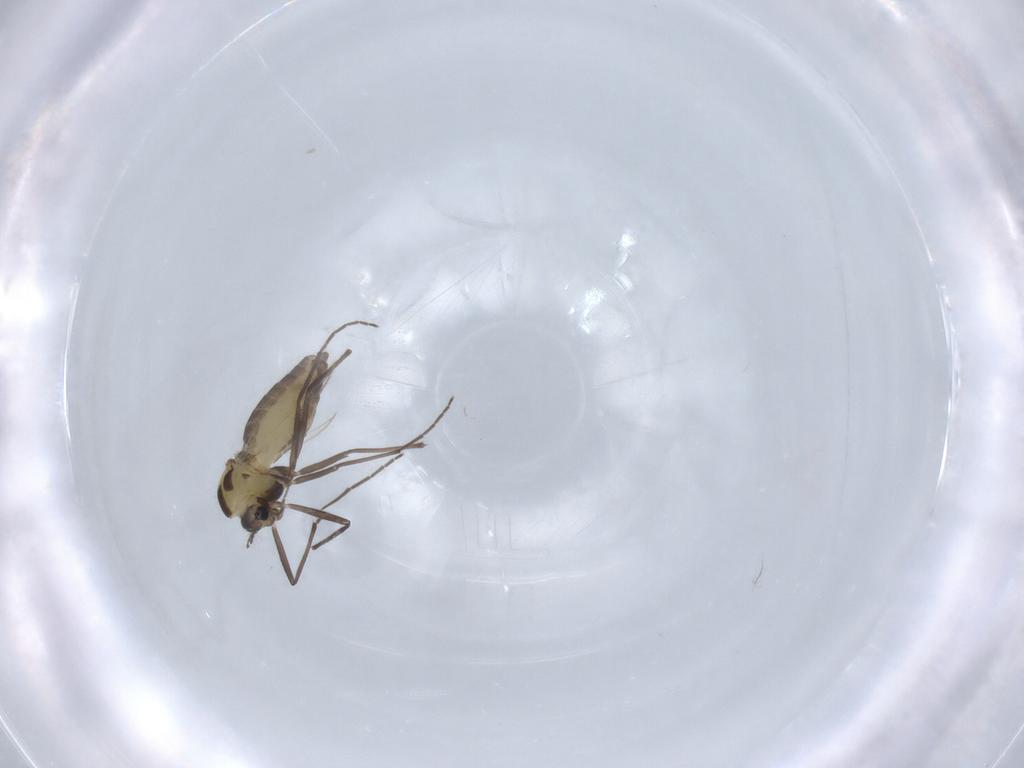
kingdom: Animalia
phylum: Arthropoda
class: Insecta
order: Diptera
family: Chironomidae
